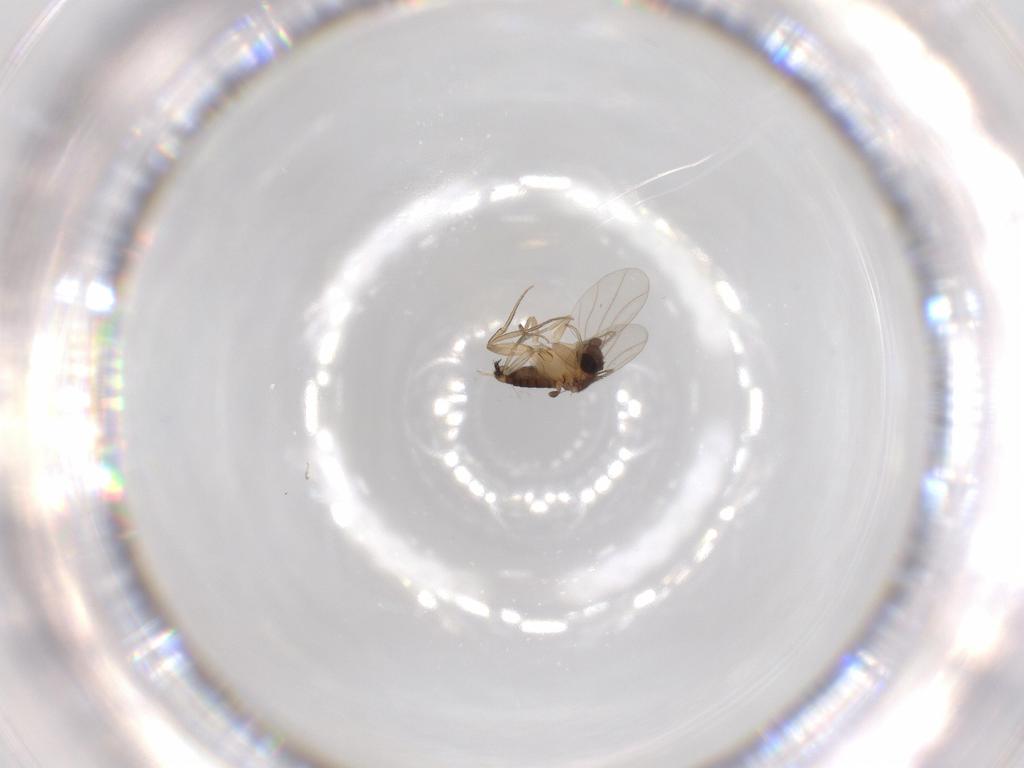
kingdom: Animalia
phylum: Arthropoda
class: Insecta
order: Diptera
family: Phoridae
